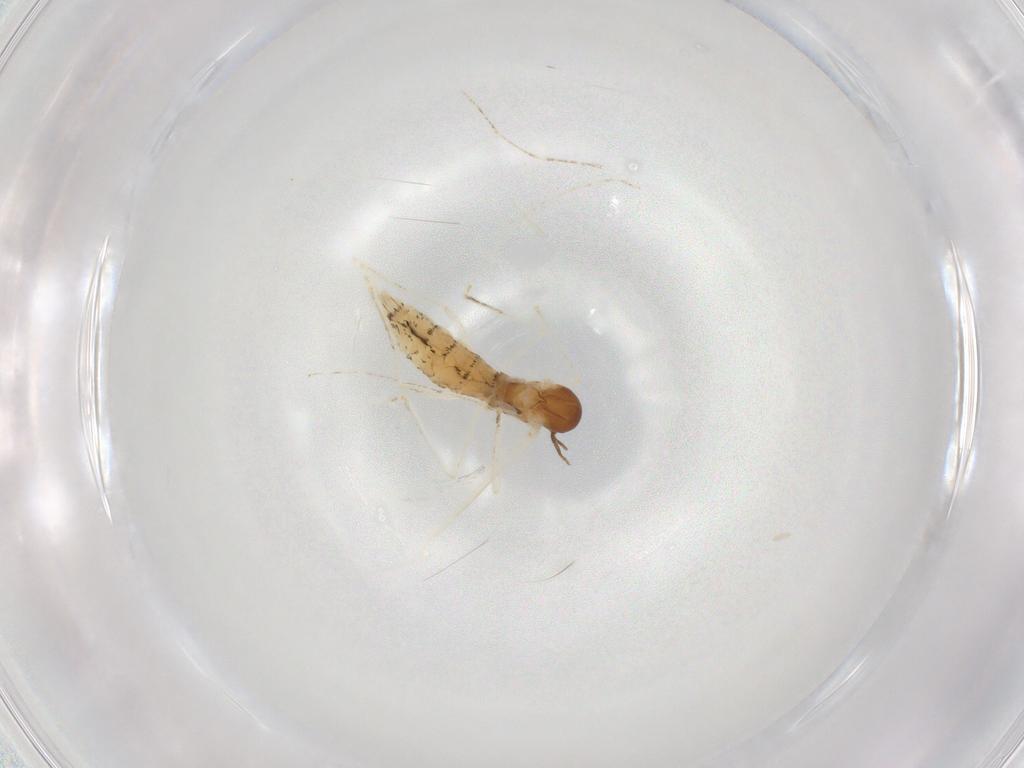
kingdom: Animalia
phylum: Arthropoda
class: Insecta
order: Diptera
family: Cecidomyiidae
